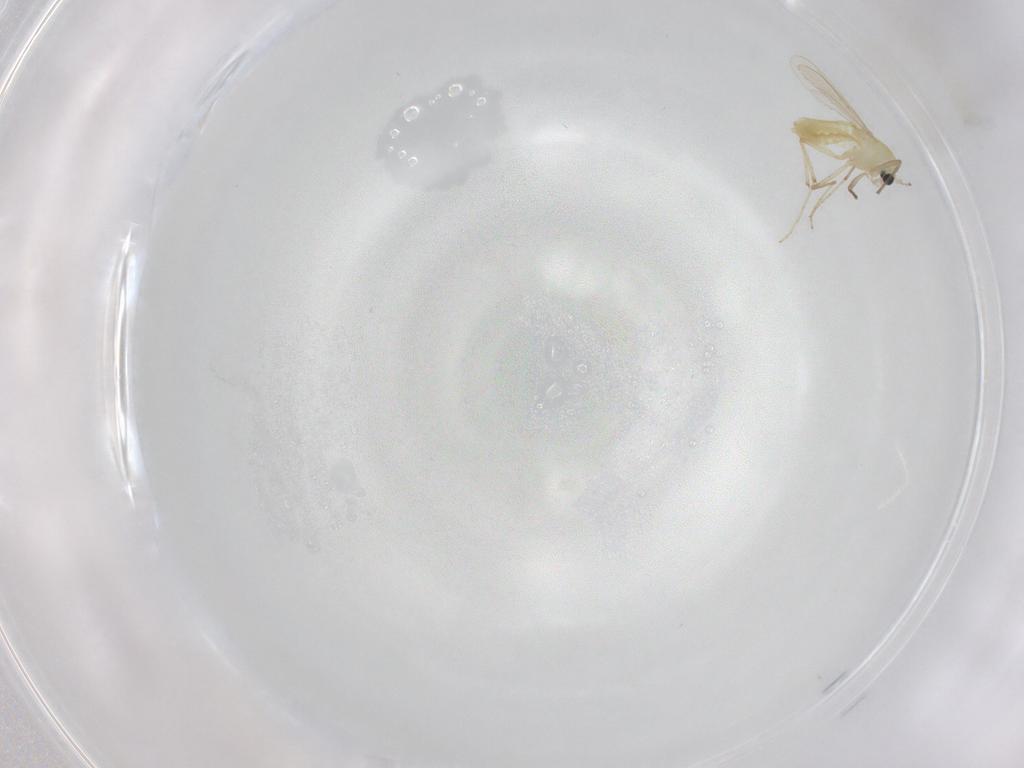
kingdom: Animalia
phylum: Arthropoda
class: Insecta
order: Diptera
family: Chironomidae
